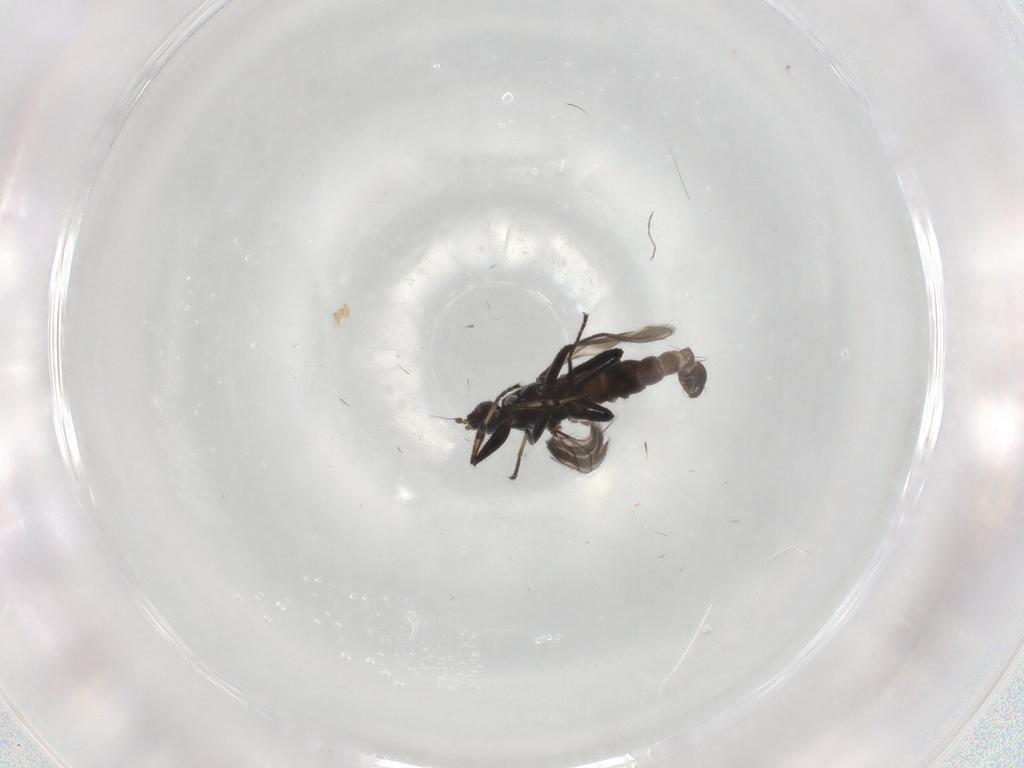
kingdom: Animalia
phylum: Arthropoda
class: Insecta
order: Diptera
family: Hybotidae
